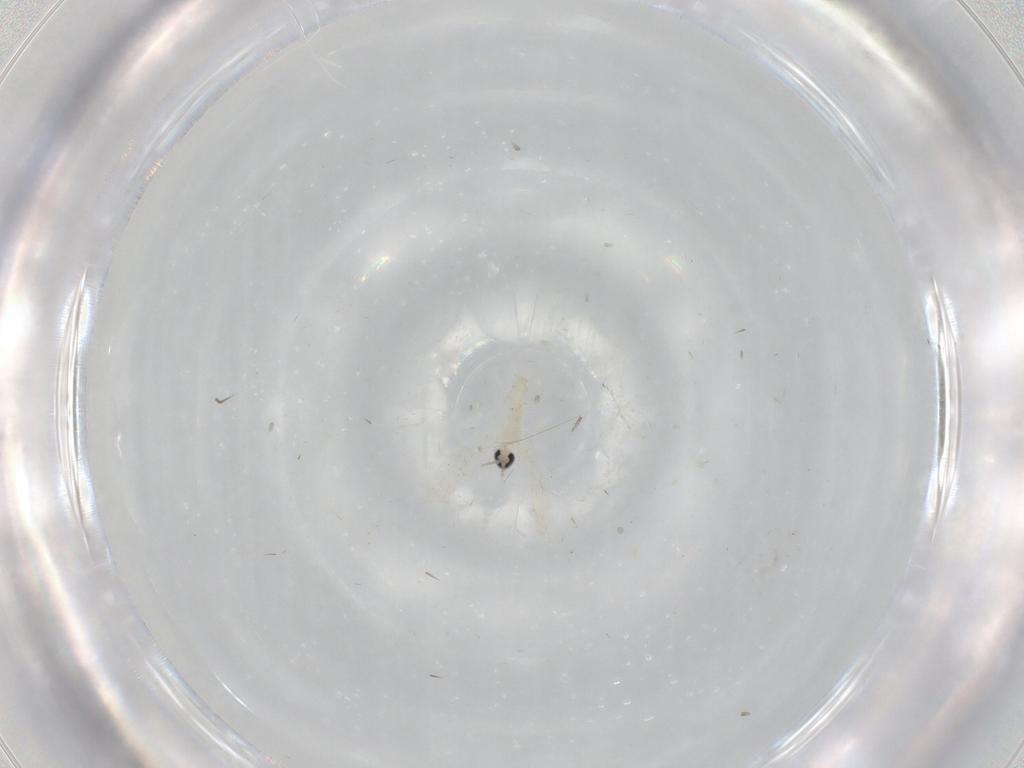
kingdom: Animalia
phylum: Arthropoda
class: Insecta
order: Diptera
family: Cecidomyiidae
